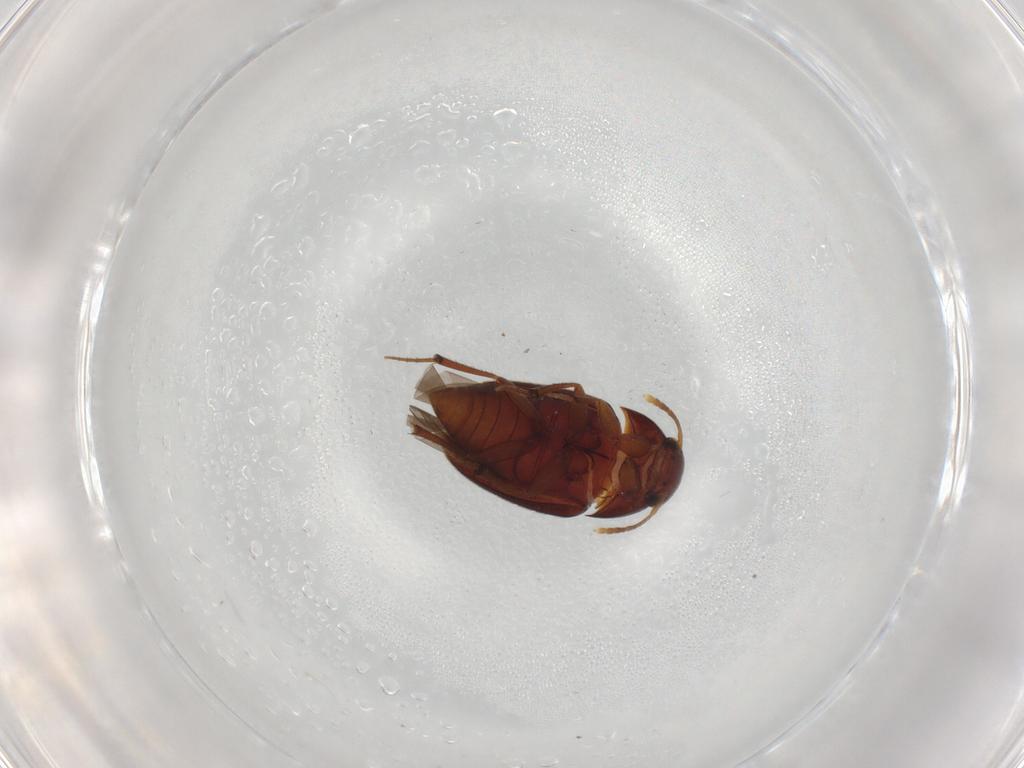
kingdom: Animalia
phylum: Arthropoda
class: Insecta
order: Coleoptera
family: Leiodidae
